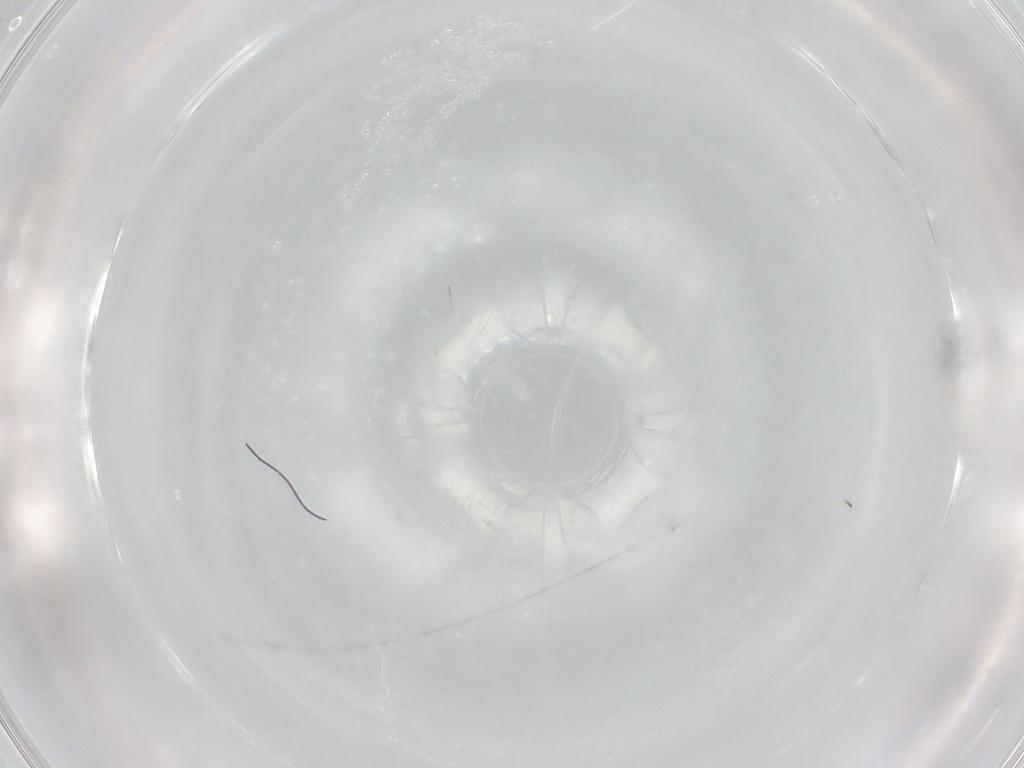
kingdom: Animalia
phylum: Arthropoda
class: Collembola
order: Entomobryomorpha
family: Entomobryidae
